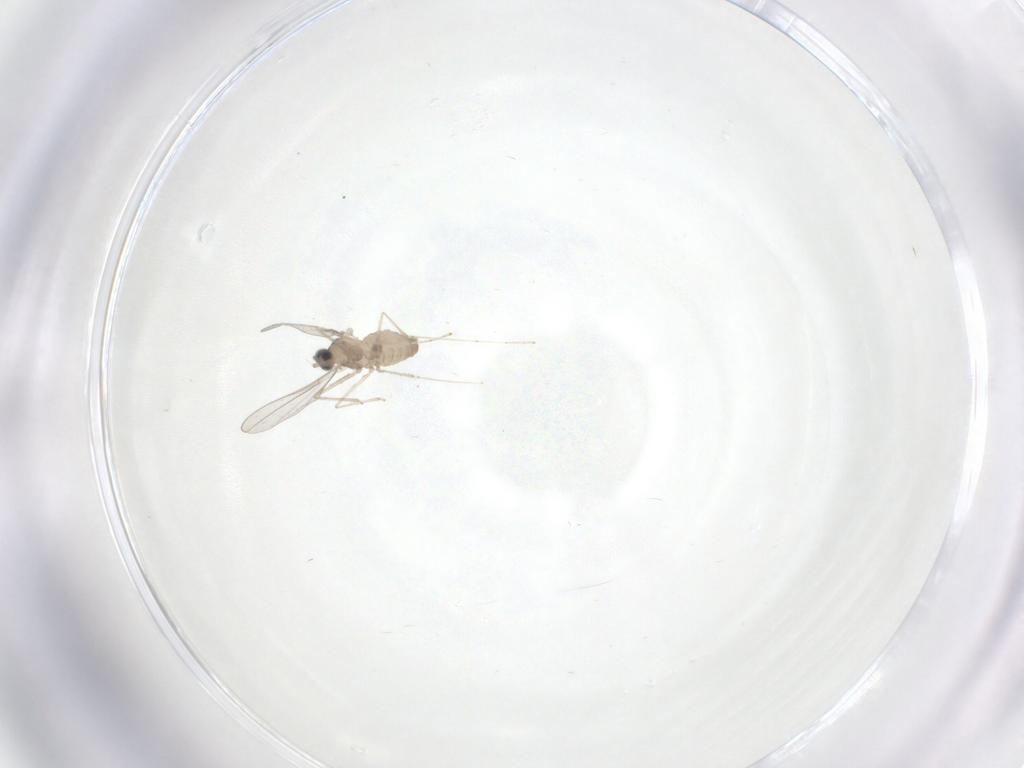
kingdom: Animalia
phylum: Arthropoda
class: Insecta
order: Diptera
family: Cecidomyiidae
